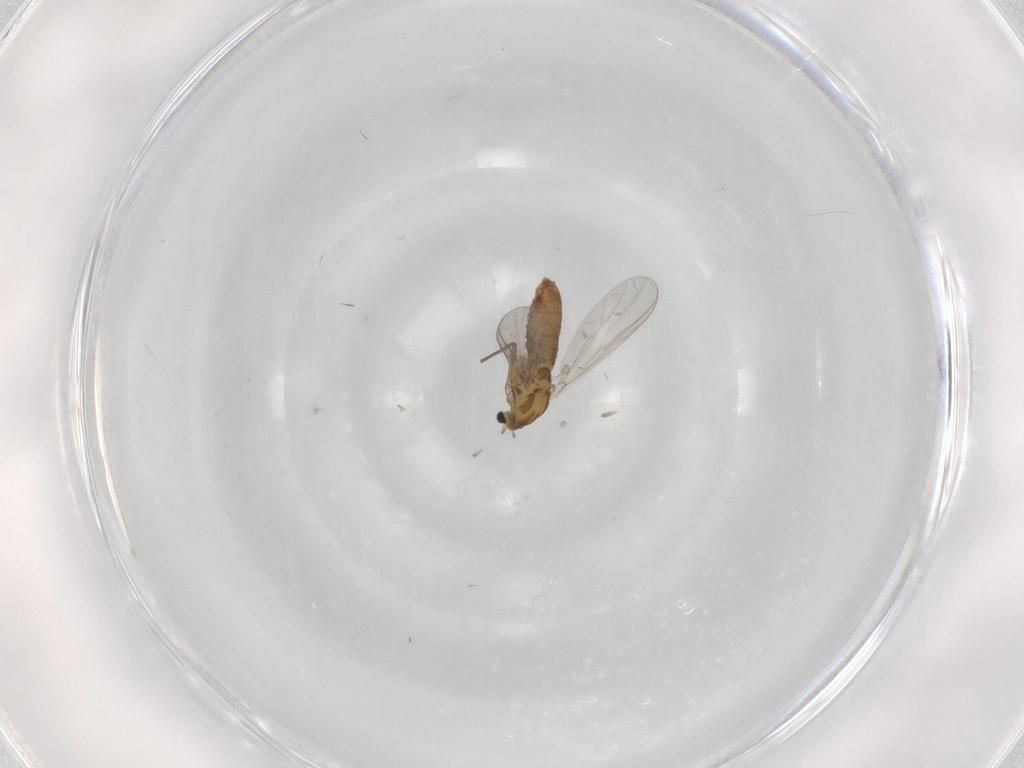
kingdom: Animalia
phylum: Arthropoda
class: Insecta
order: Diptera
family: Chironomidae
